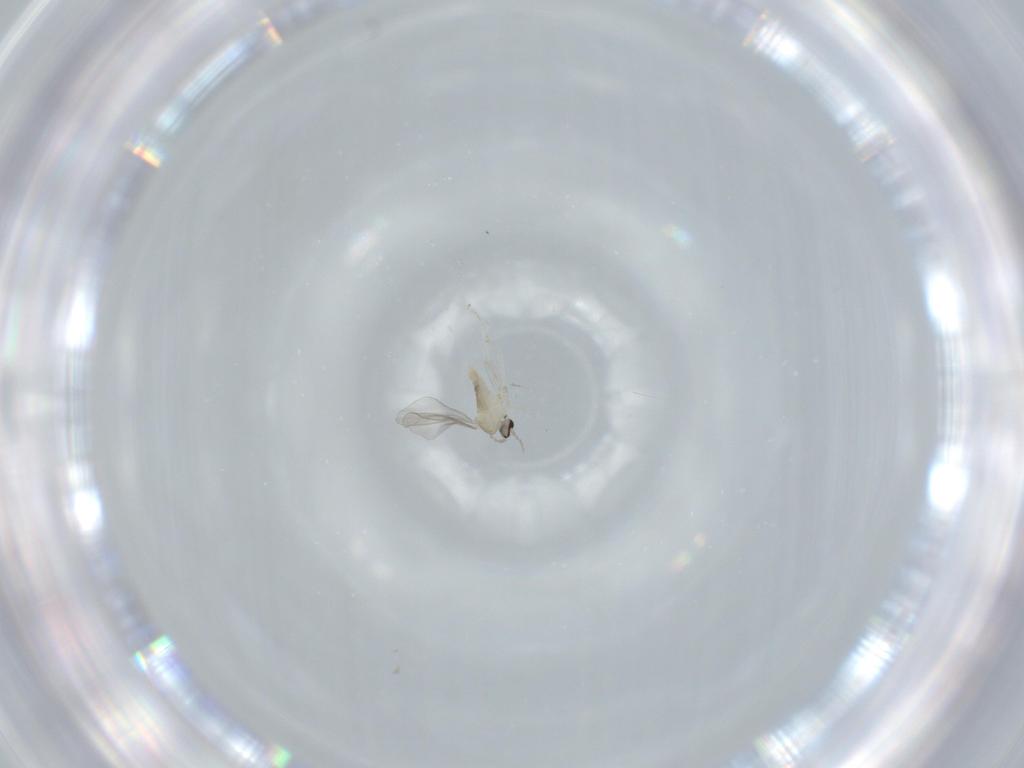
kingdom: Animalia
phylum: Arthropoda
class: Insecta
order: Diptera
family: Cecidomyiidae
